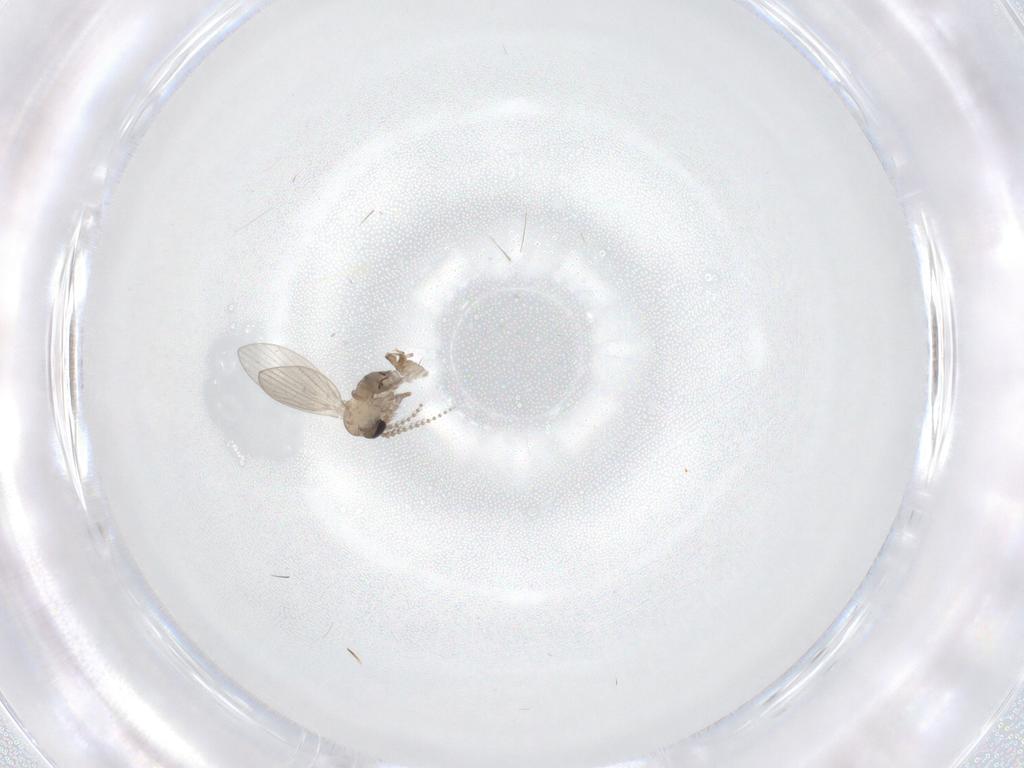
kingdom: Animalia
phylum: Arthropoda
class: Insecta
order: Diptera
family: Psychodidae
